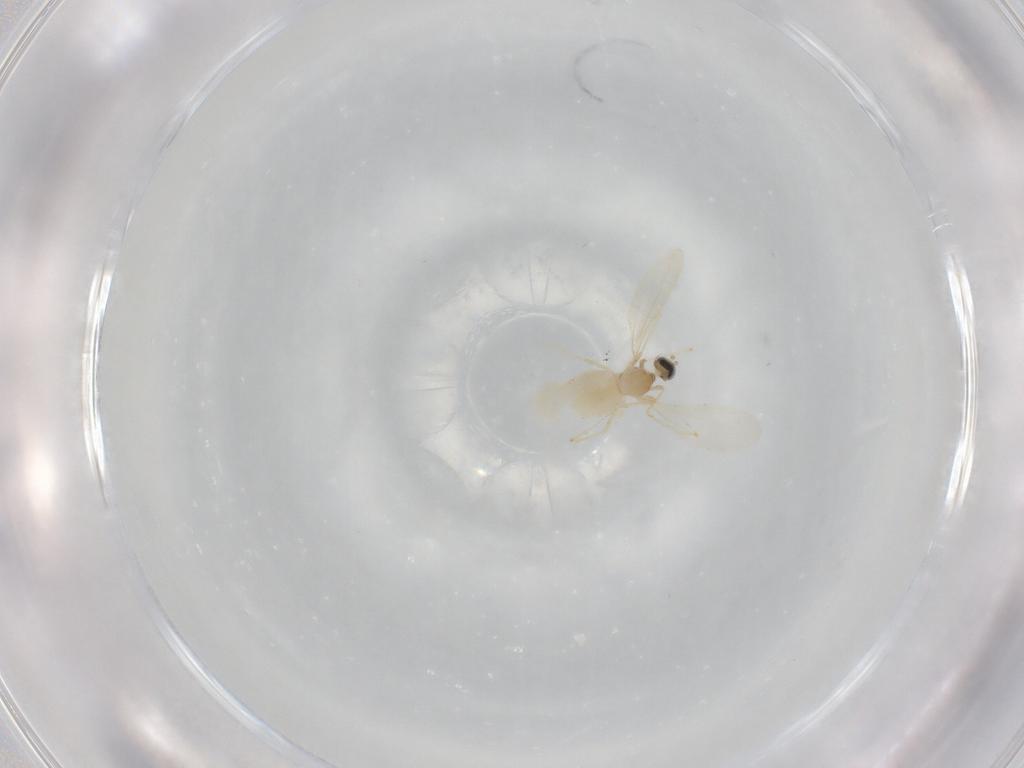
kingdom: Animalia
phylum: Arthropoda
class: Insecta
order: Diptera
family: Cecidomyiidae
